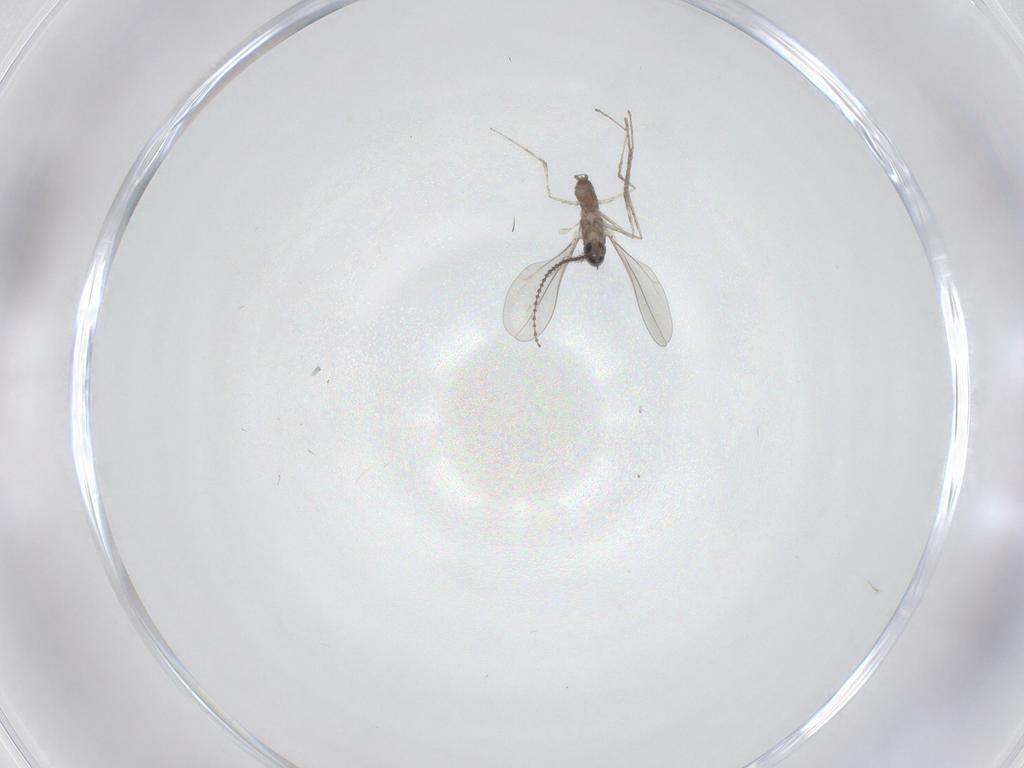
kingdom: Animalia
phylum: Arthropoda
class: Insecta
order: Diptera
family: Cecidomyiidae
